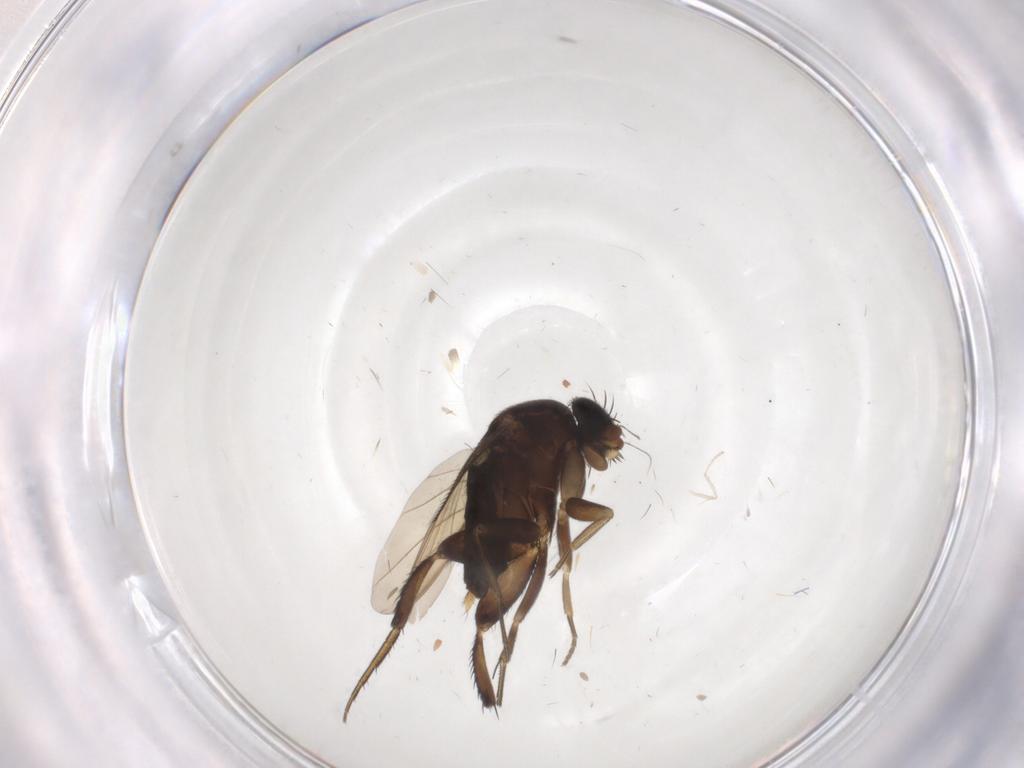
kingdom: Animalia
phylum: Arthropoda
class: Insecta
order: Diptera
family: Phoridae
